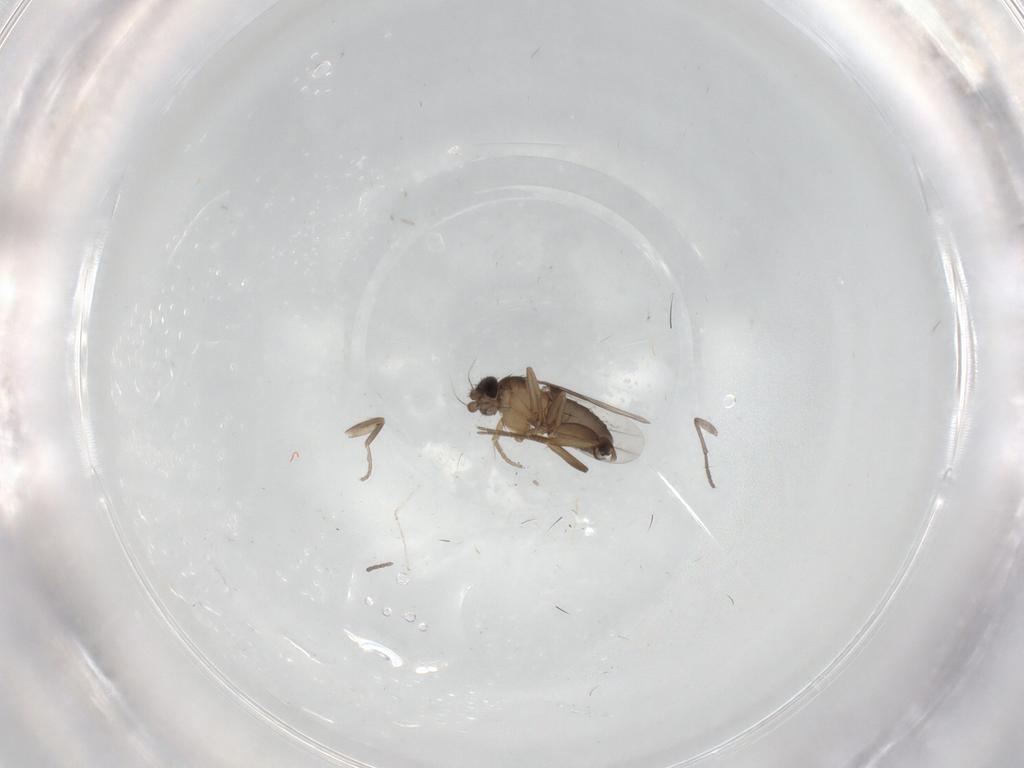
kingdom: Animalia
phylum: Arthropoda
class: Insecta
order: Diptera
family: Phoridae
